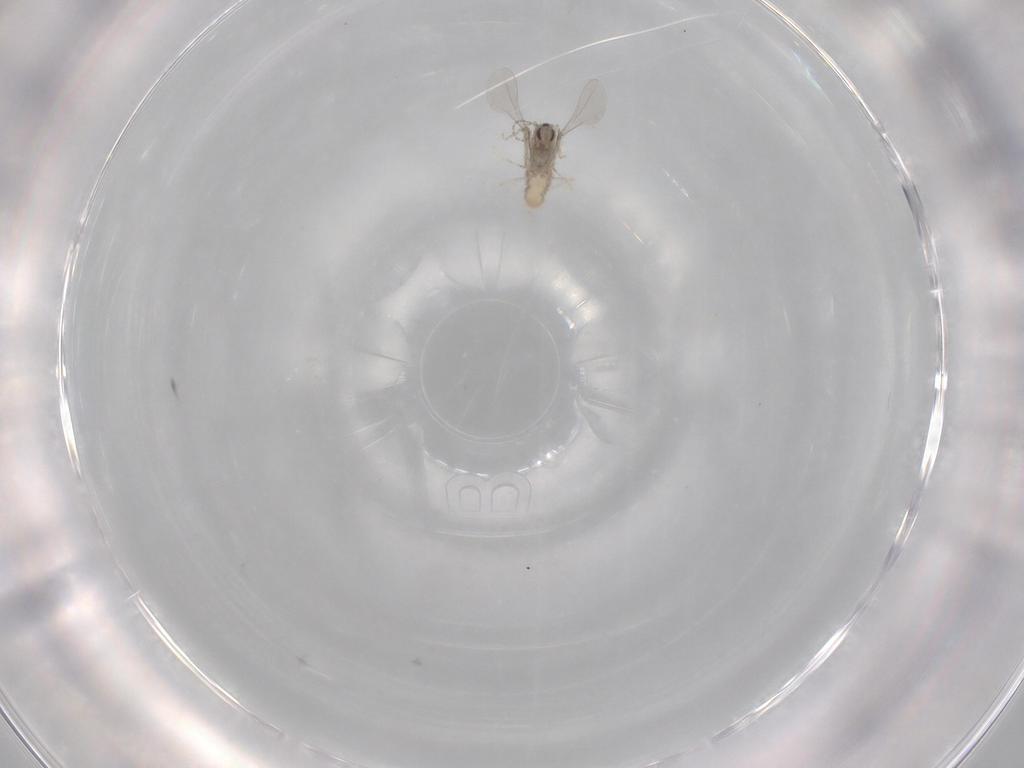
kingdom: Animalia
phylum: Arthropoda
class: Insecta
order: Diptera
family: Cecidomyiidae
